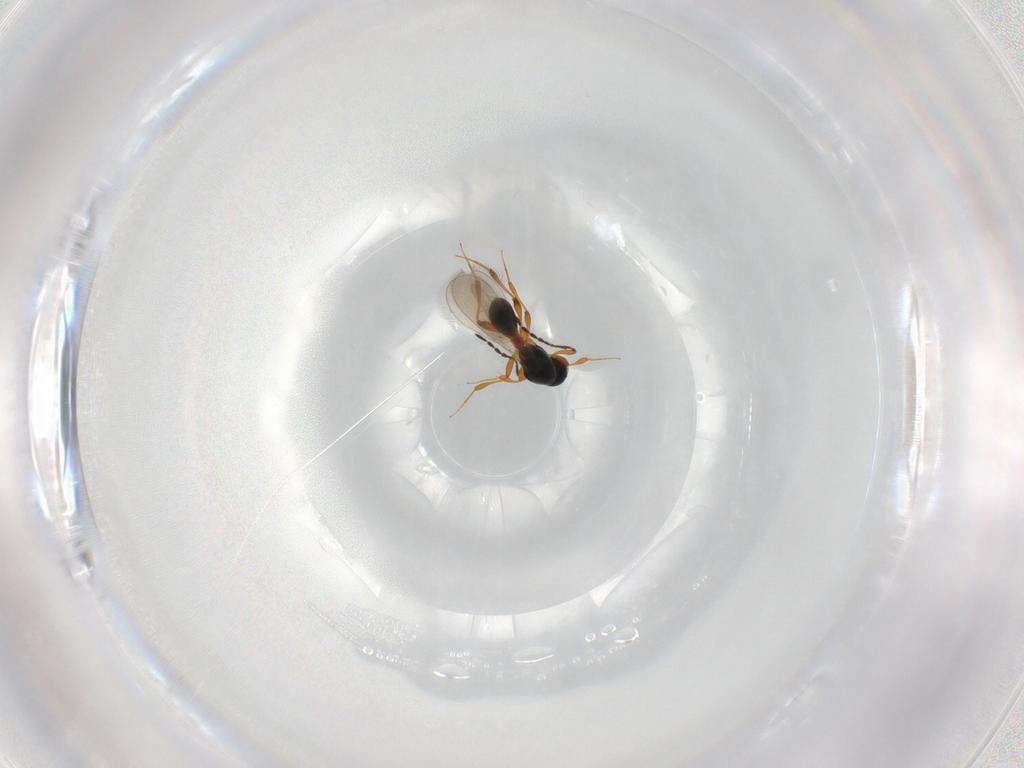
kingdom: Animalia
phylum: Arthropoda
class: Insecta
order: Hymenoptera
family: Platygastridae
